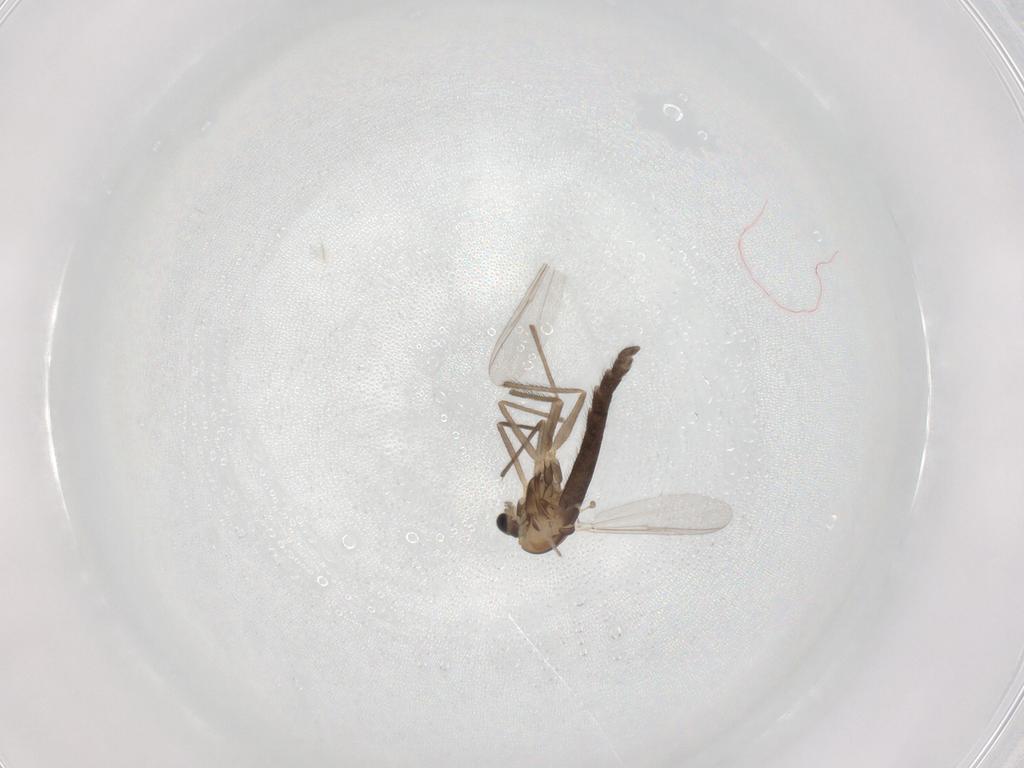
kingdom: Animalia
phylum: Arthropoda
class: Insecta
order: Diptera
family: Chironomidae
